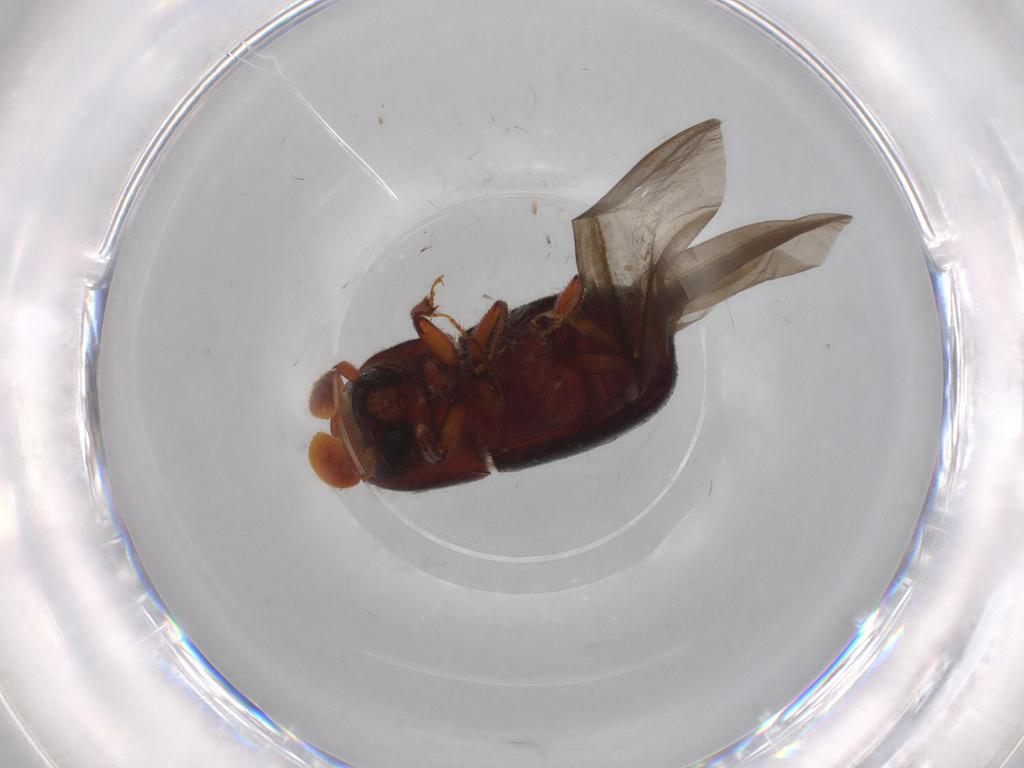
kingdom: Animalia
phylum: Arthropoda
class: Insecta
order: Coleoptera
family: Curculionidae
